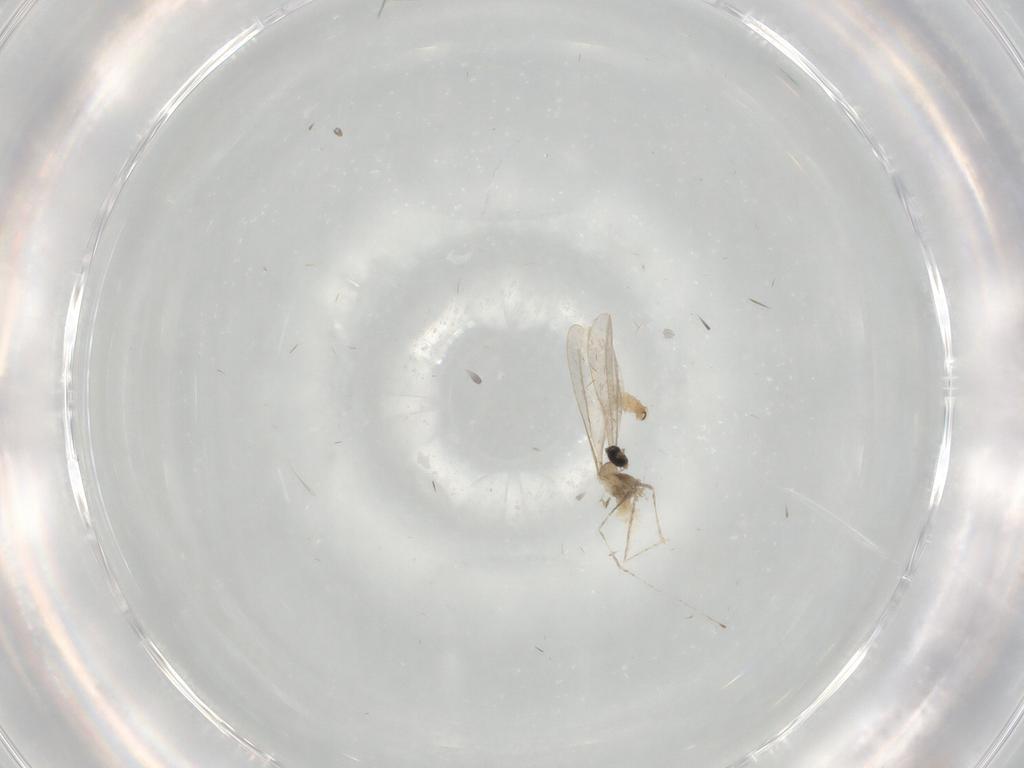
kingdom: Animalia
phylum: Arthropoda
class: Insecta
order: Diptera
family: Cecidomyiidae
